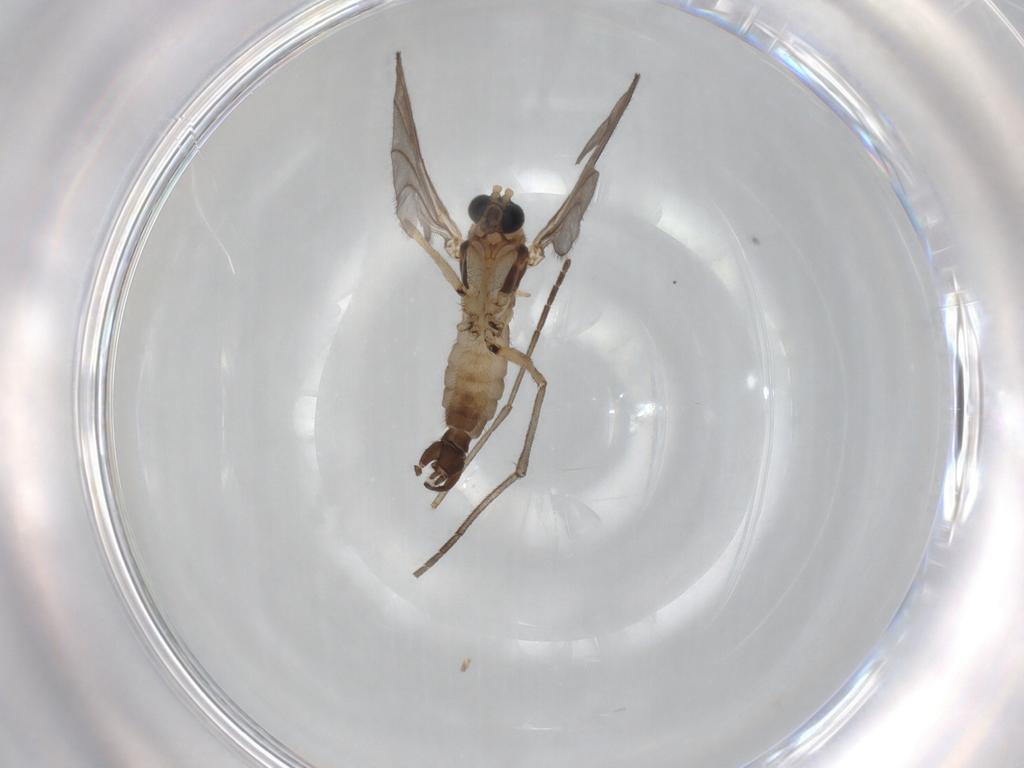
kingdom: Animalia
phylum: Arthropoda
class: Insecta
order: Diptera
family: Sciaridae
